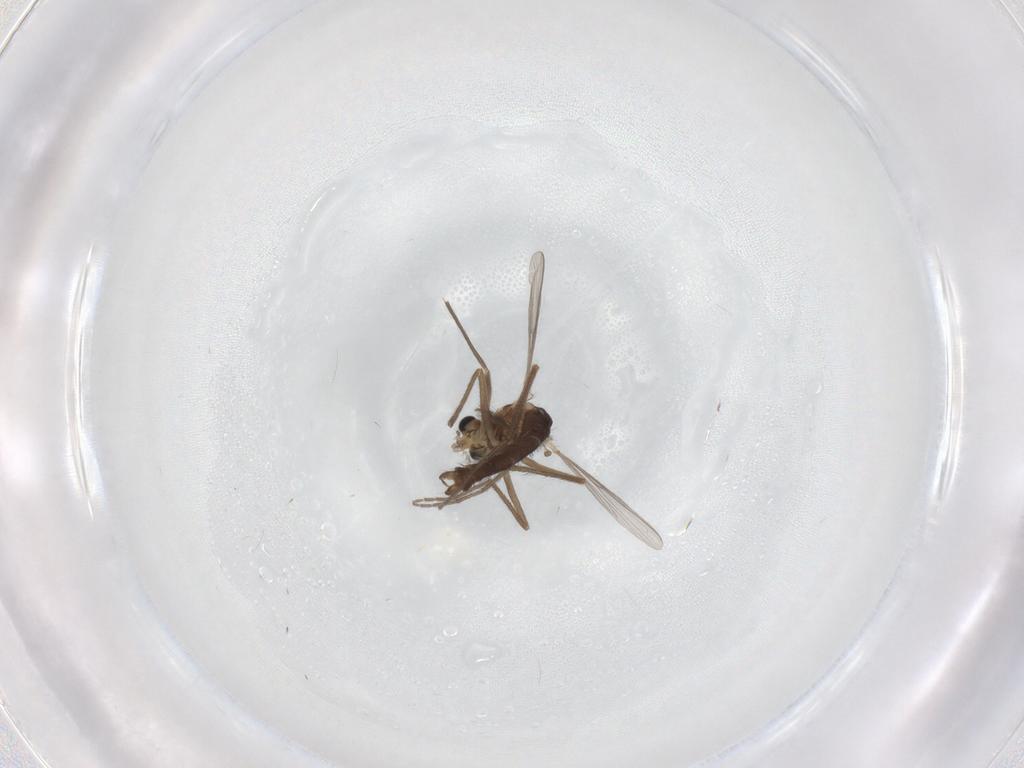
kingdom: Animalia
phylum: Arthropoda
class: Insecta
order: Diptera
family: Chironomidae
